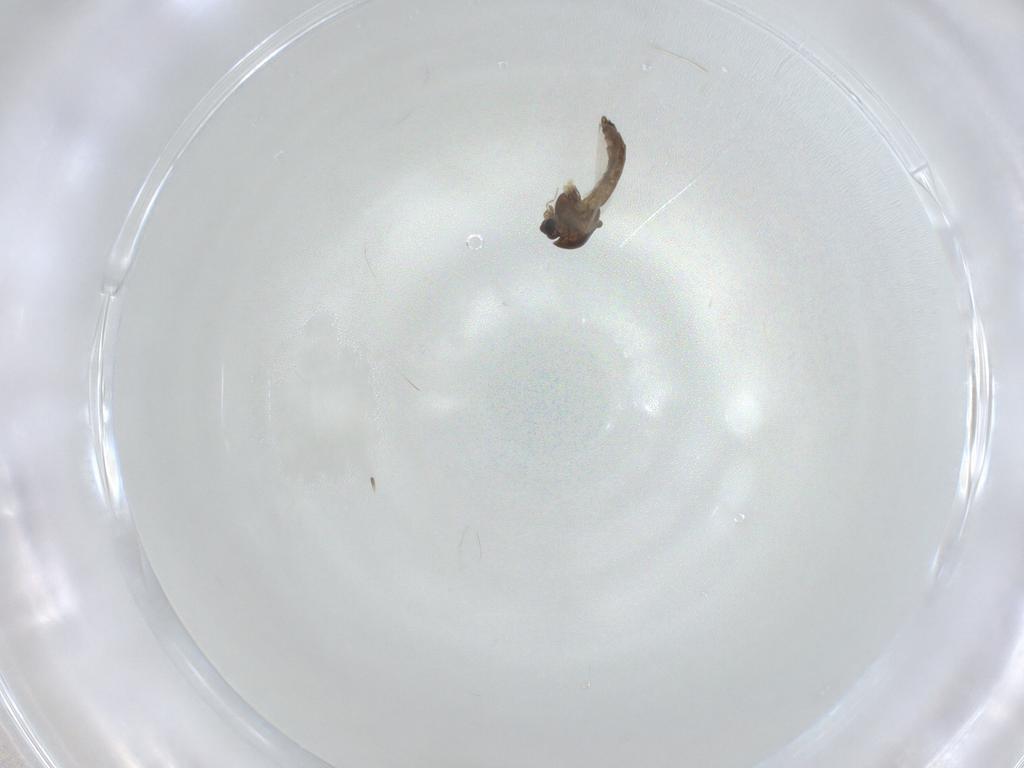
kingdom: Animalia
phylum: Arthropoda
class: Insecta
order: Diptera
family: Chironomidae
